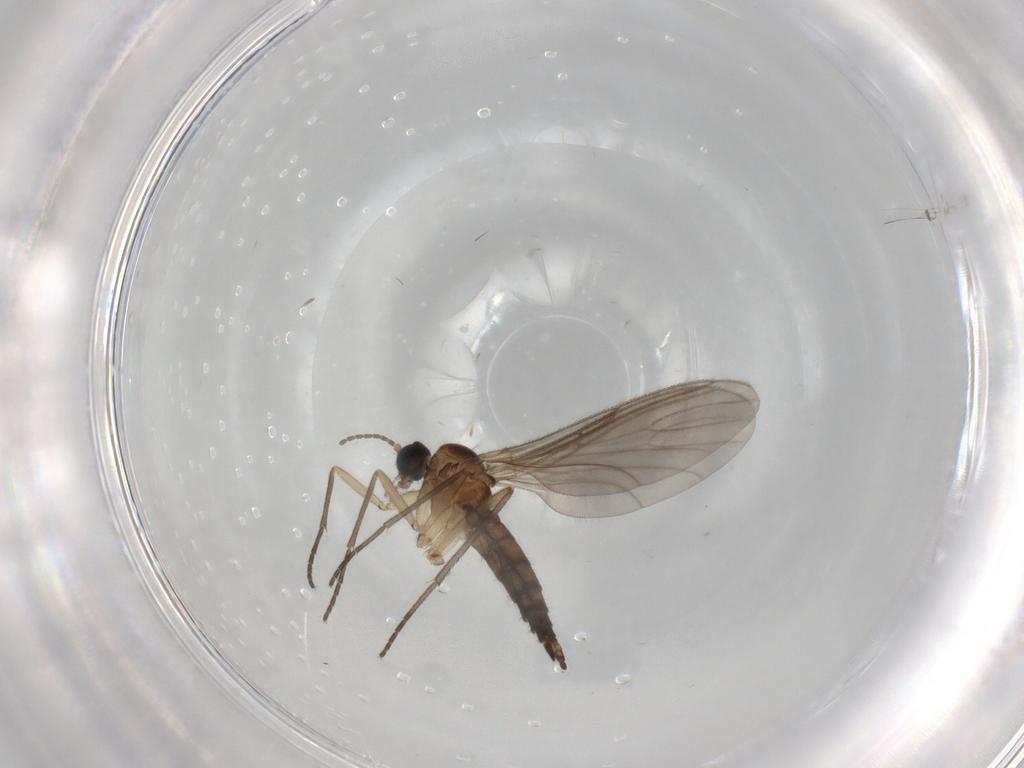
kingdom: Animalia
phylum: Arthropoda
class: Insecta
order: Diptera
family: Sciaridae
